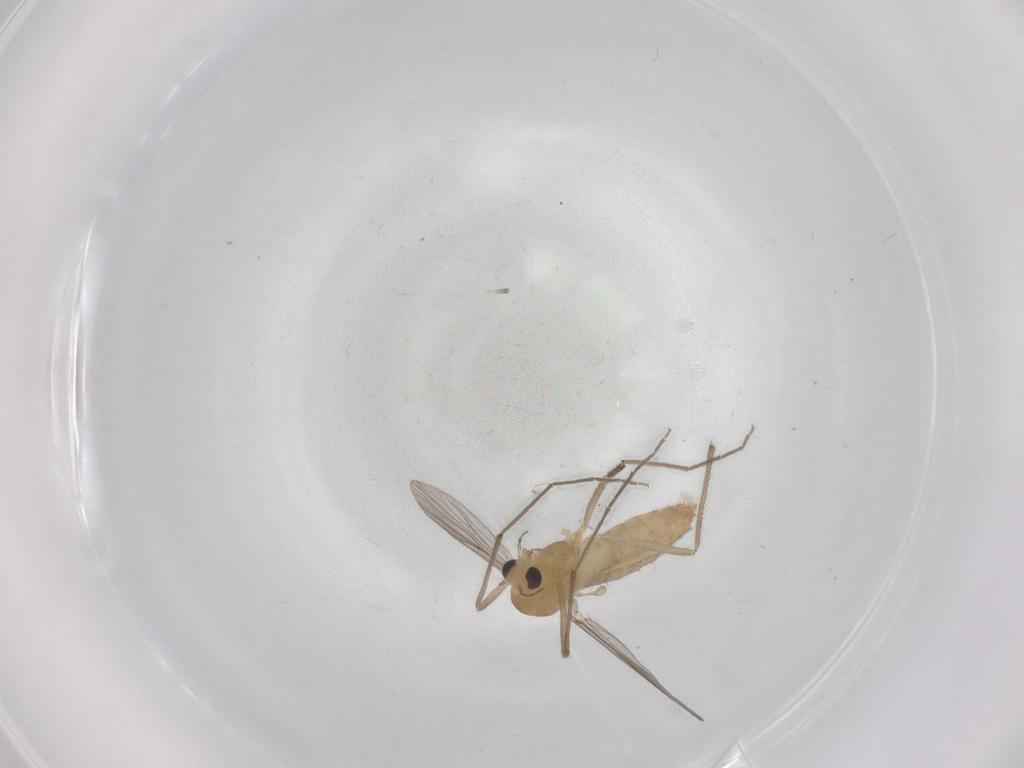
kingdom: Animalia
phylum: Arthropoda
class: Insecta
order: Diptera
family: Chironomidae
